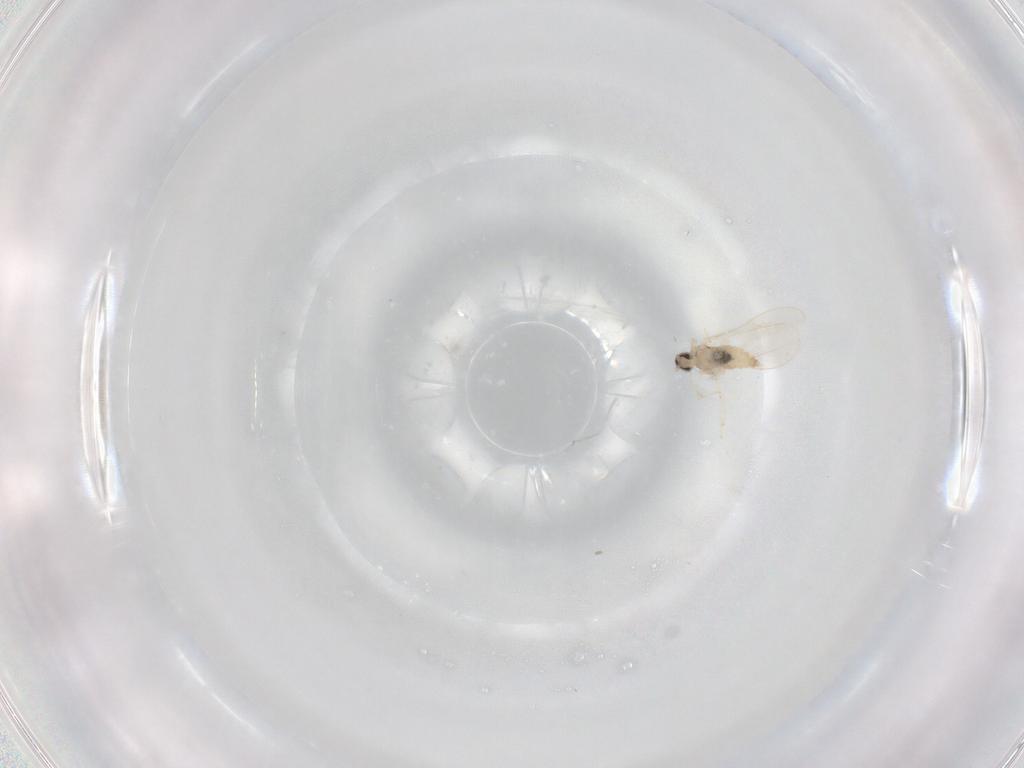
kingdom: Animalia
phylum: Arthropoda
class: Insecta
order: Diptera
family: Cecidomyiidae
